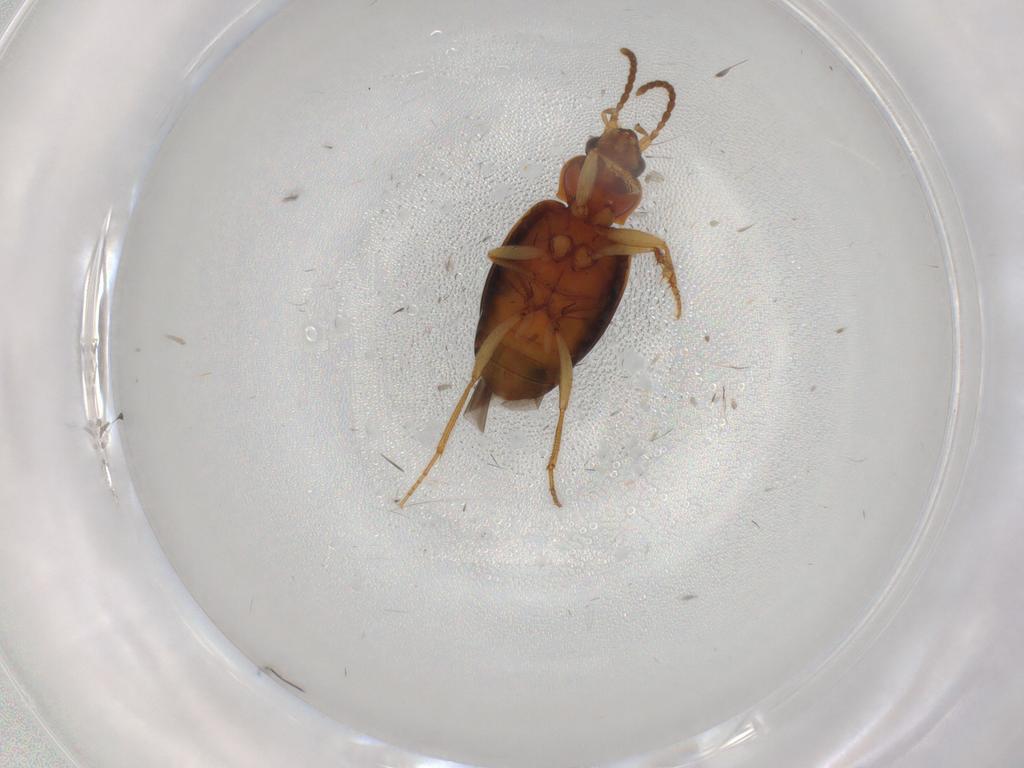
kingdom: Animalia
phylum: Arthropoda
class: Insecta
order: Coleoptera
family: Carabidae
